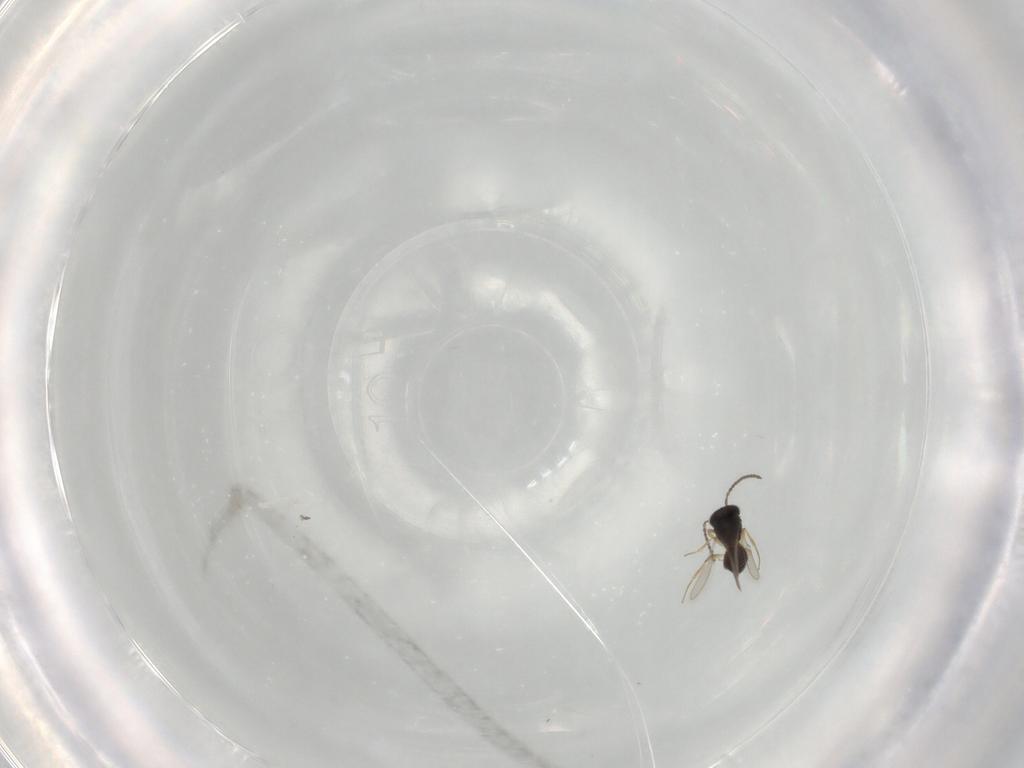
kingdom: Animalia
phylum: Arthropoda
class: Insecta
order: Hymenoptera
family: Scelionidae
